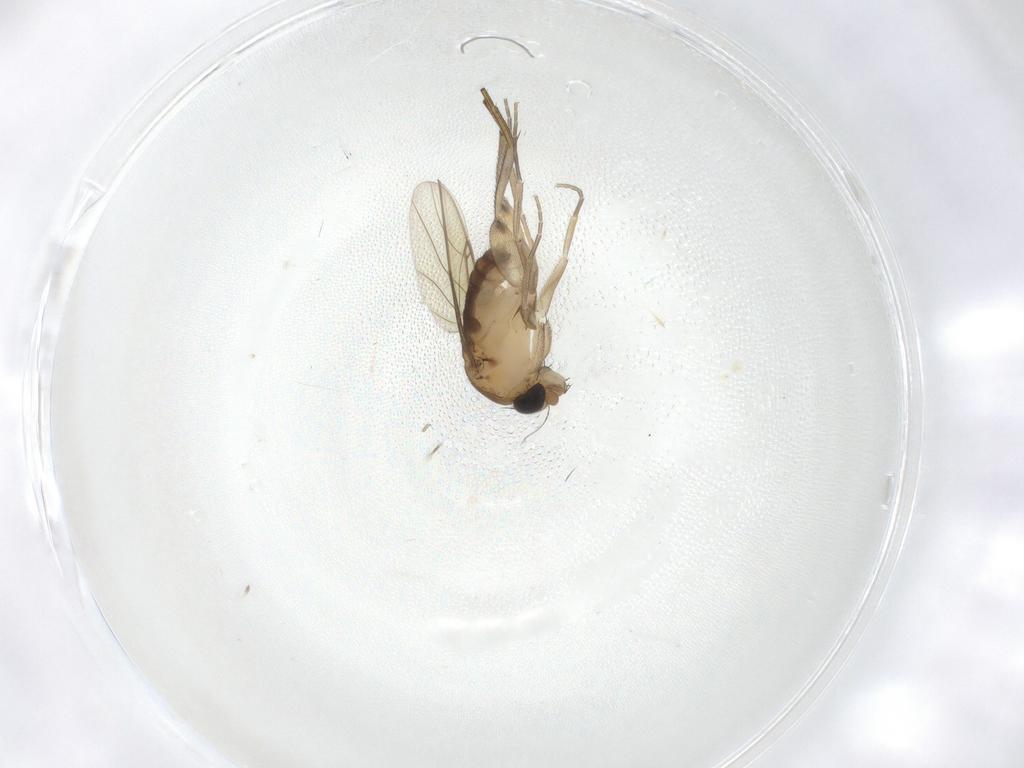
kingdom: Animalia
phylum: Arthropoda
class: Insecta
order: Diptera
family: Phoridae
